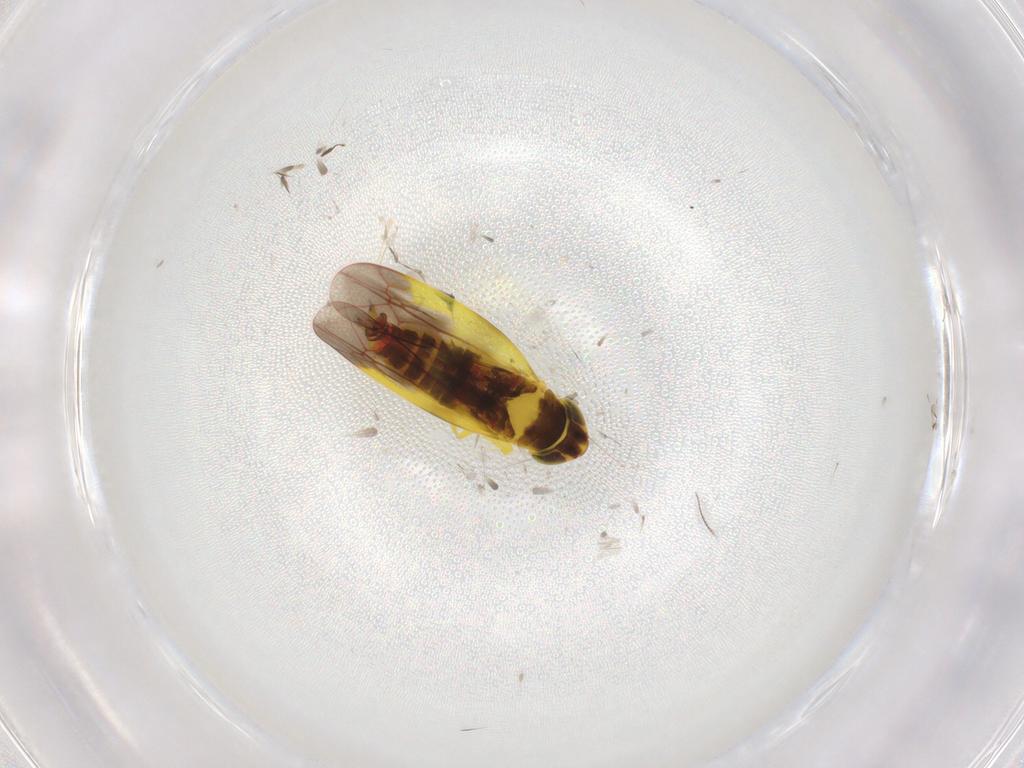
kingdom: Animalia
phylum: Arthropoda
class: Insecta
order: Hemiptera
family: Cicadellidae
